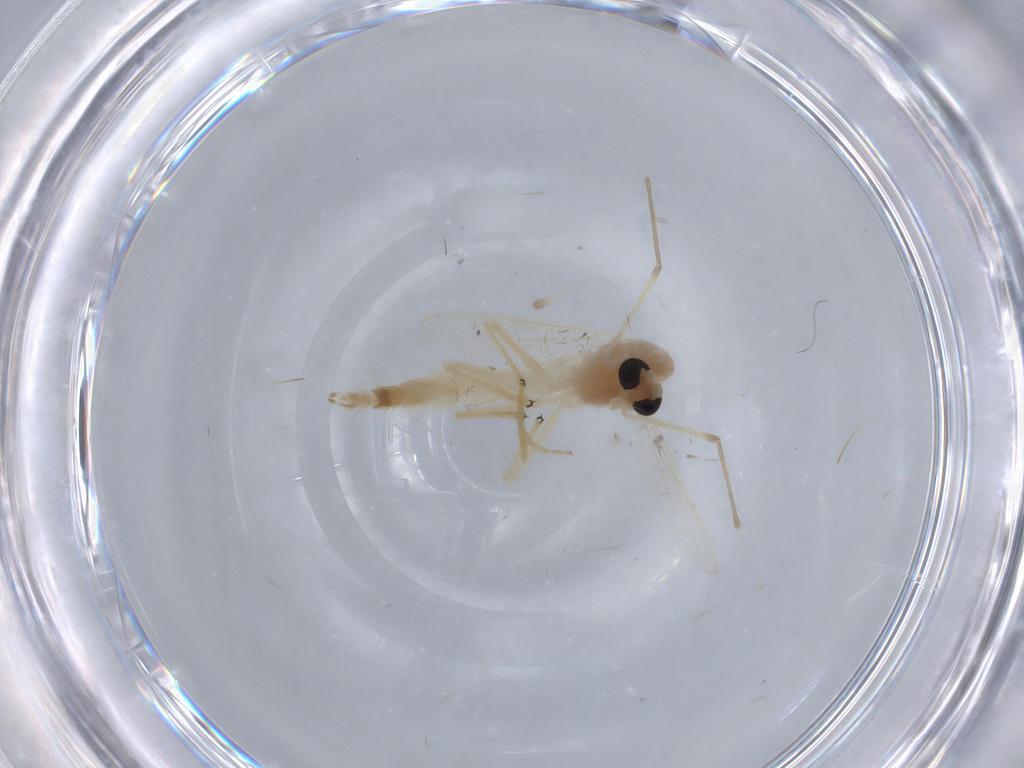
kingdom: Animalia
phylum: Arthropoda
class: Insecta
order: Diptera
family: Chironomidae
